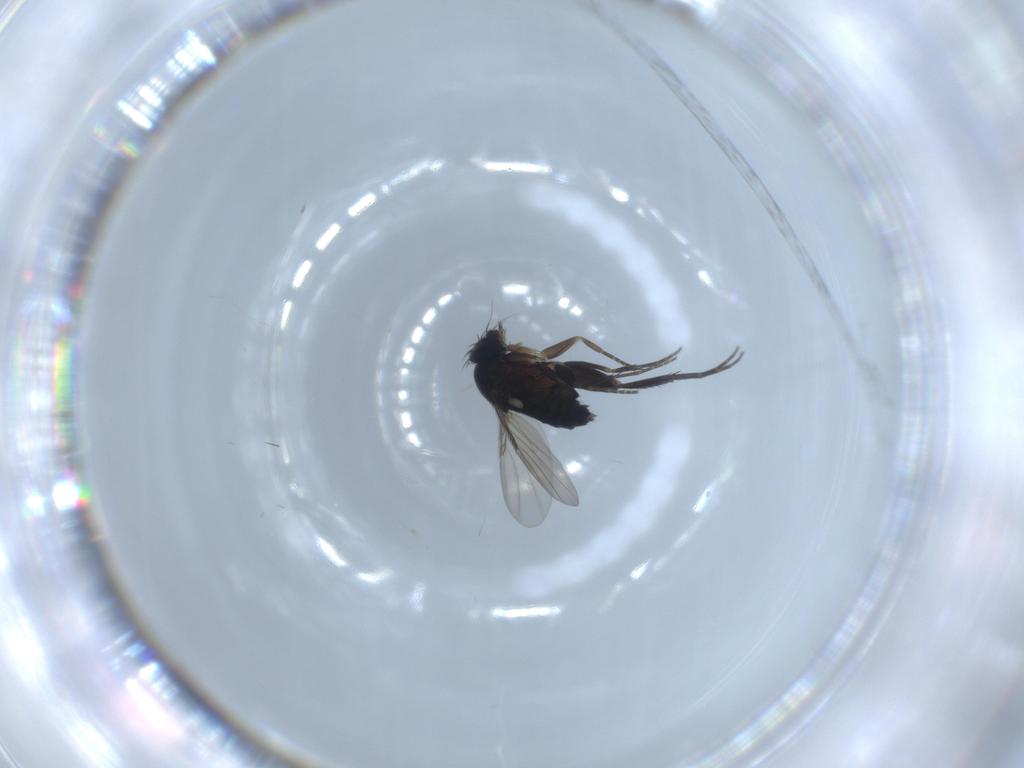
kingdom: Animalia
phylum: Arthropoda
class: Insecta
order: Diptera
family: Phoridae
